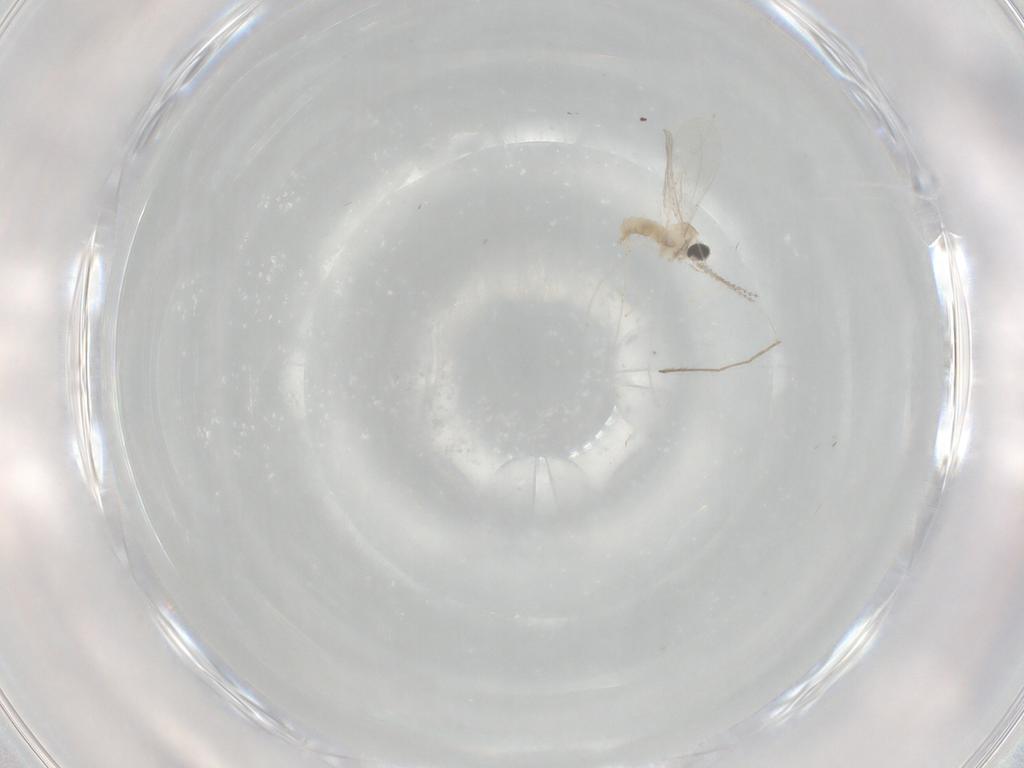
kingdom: Animalia
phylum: Arthropoda
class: Insecta
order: Diptera
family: Chironomidae
